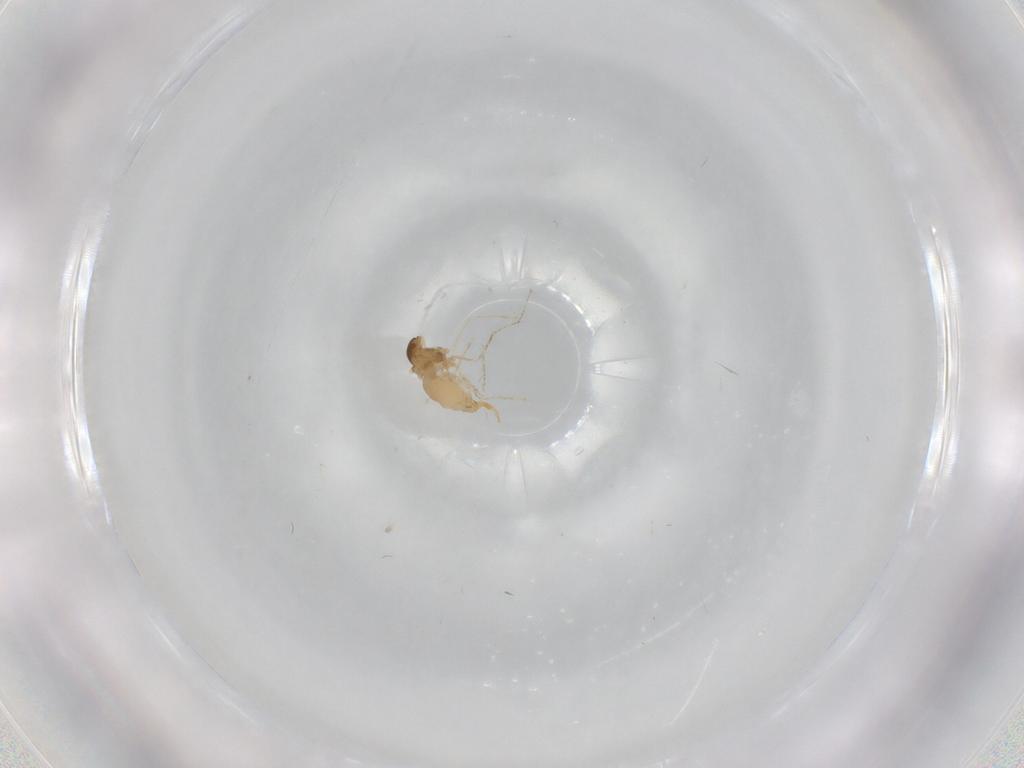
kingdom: Animalia
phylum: Arthropoda
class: Insecta
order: Diptera
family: Cecidomyiidae
